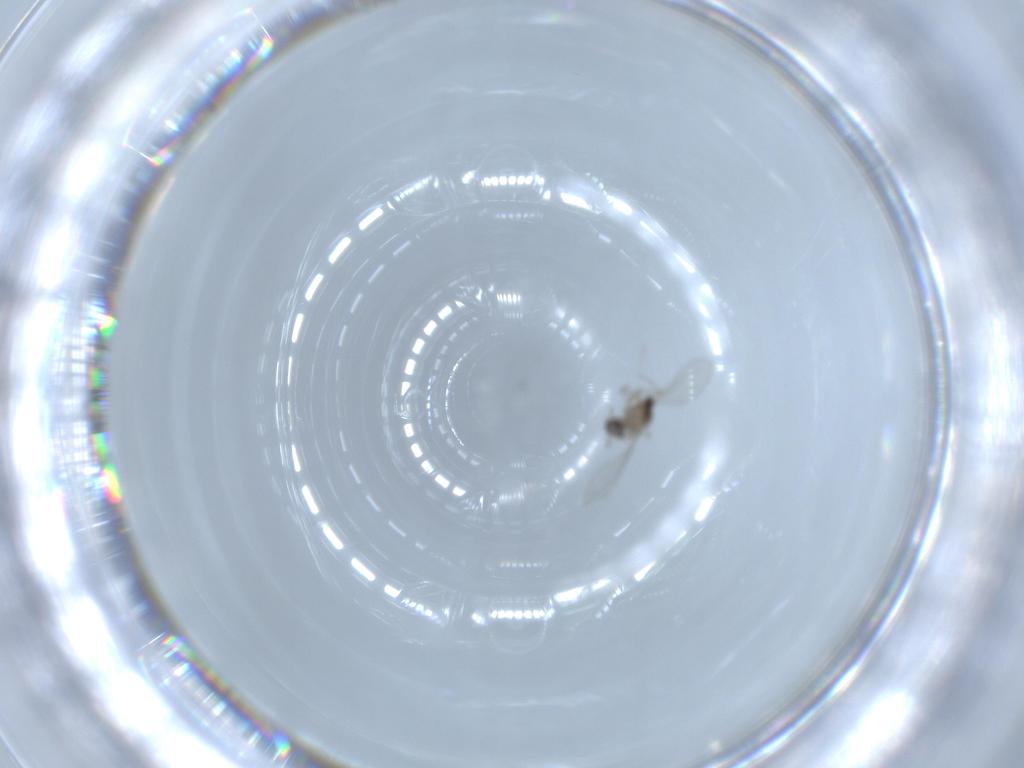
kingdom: Animalia
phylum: Arthropoda
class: Insecta
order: Diptera
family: Cecidomyiidae
